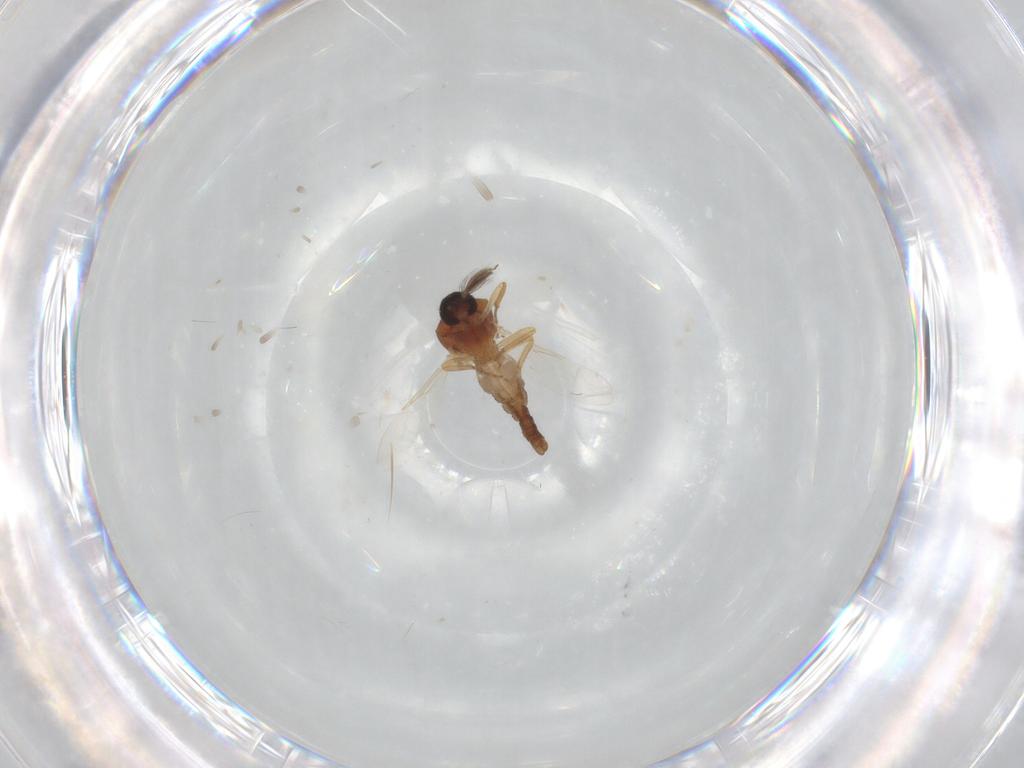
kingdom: Animalia
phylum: Arthropoda
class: Insecta
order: Diptera
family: Ceratopogonidae
